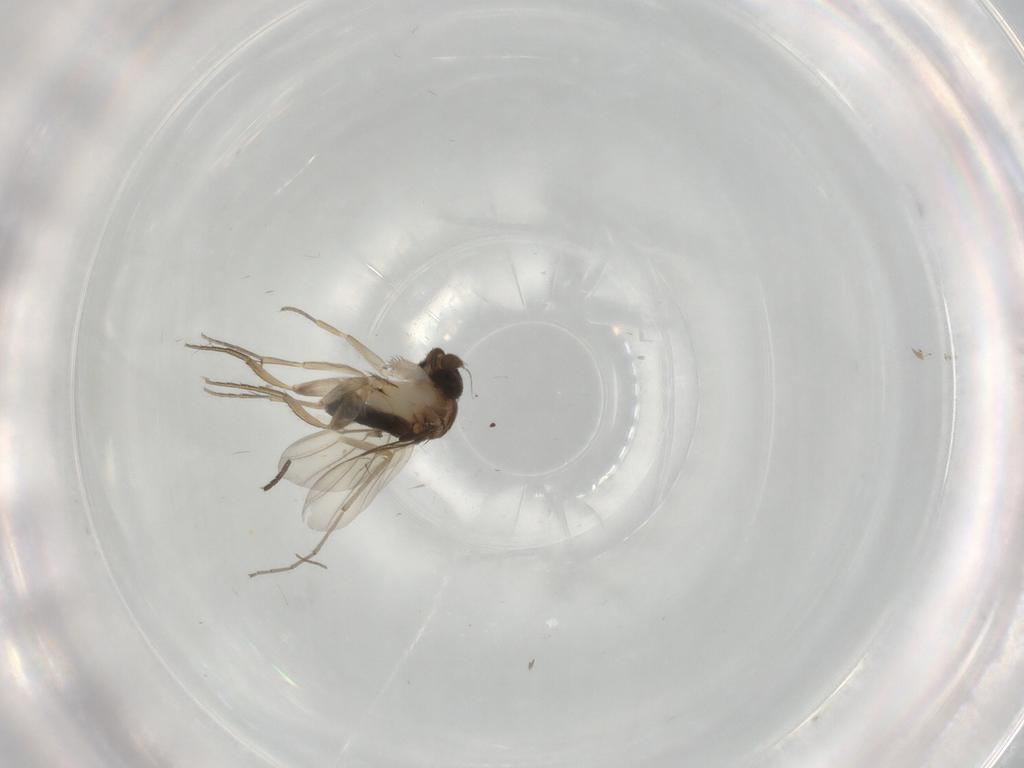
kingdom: Animalia
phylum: Arthropoda
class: Insecta
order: Diptera
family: Phoridae
